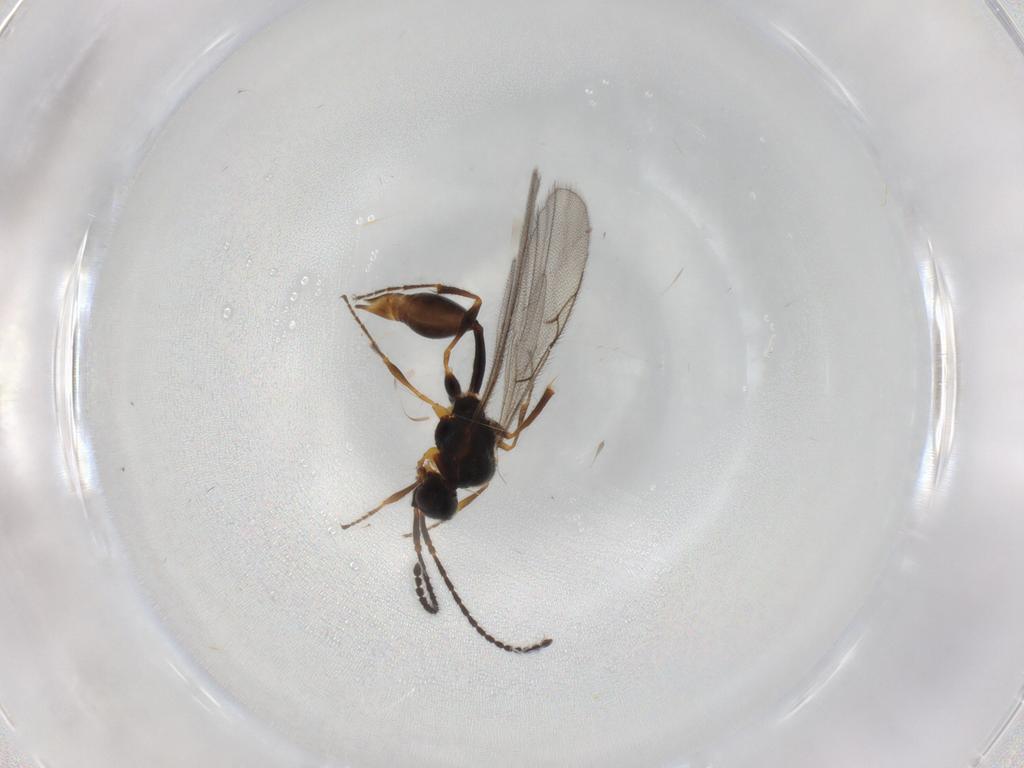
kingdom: Animalia
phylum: Arthropoda
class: Insecta
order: Hymenoptera
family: Diapriidae
